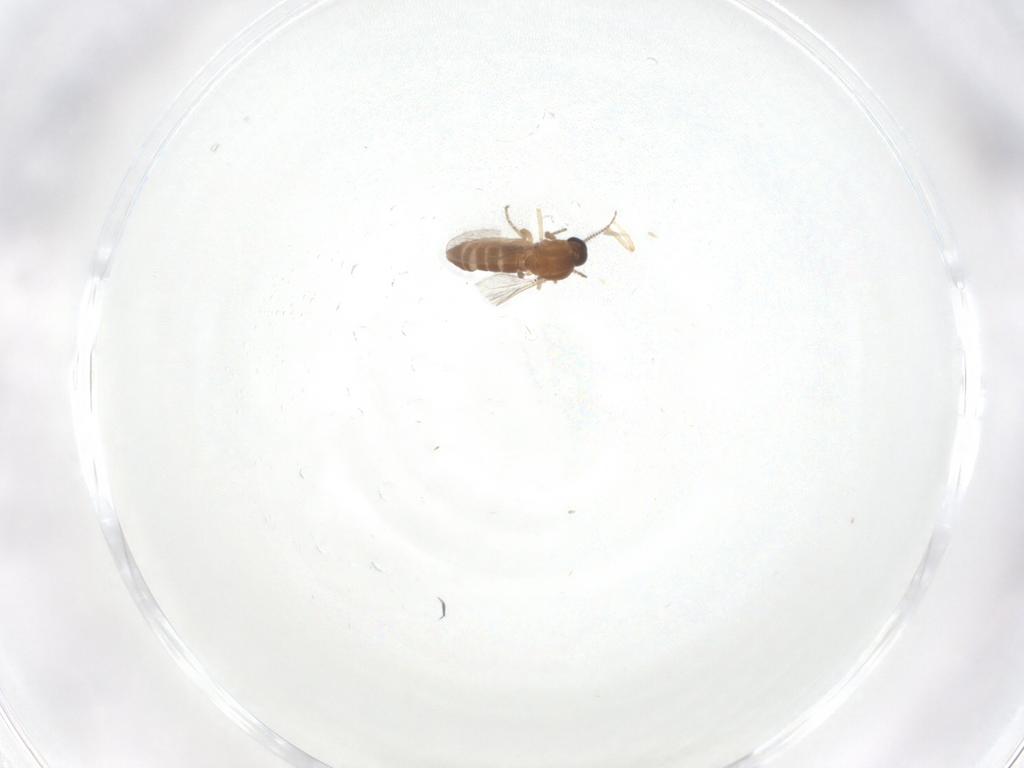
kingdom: Animalia
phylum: Arthropoda
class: Insecta
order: Diptera
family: Ceratopogonidae
